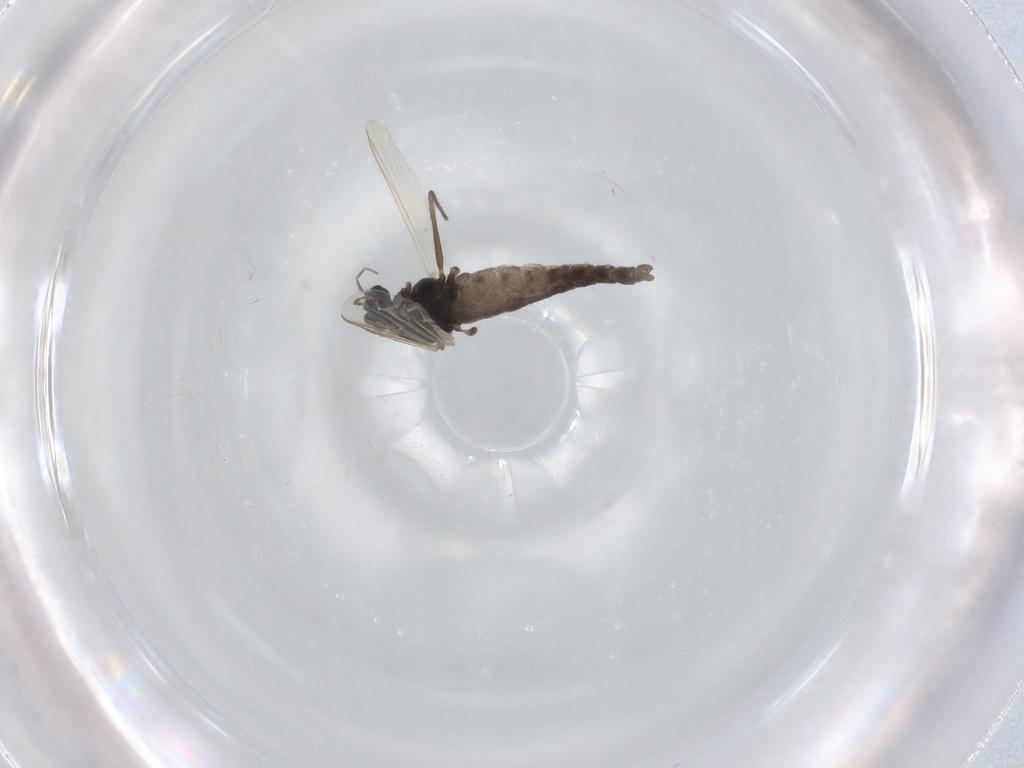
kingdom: Animalia
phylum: Arthropoda
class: Insecta
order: Diptera
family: Chironomidae
